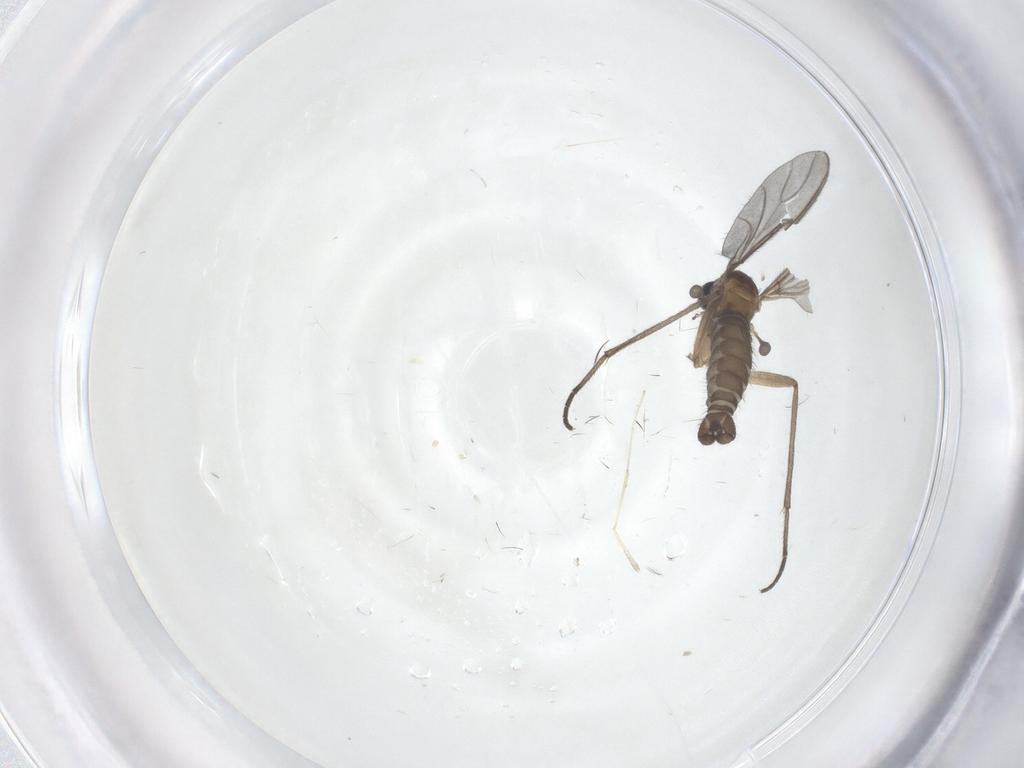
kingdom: Animalia
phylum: Arthropoda
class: Insecta
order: Diptera
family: Sciaridae
